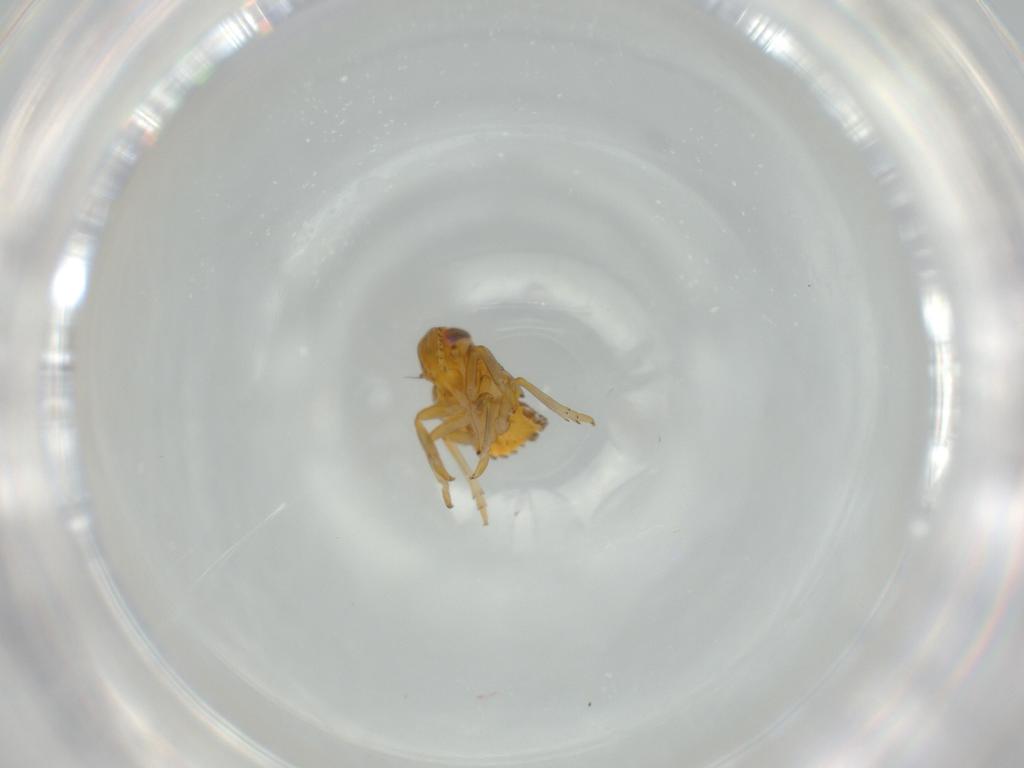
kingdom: Animalia
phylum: Arthropoda
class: Insecta
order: Hemiptera
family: Issidae
